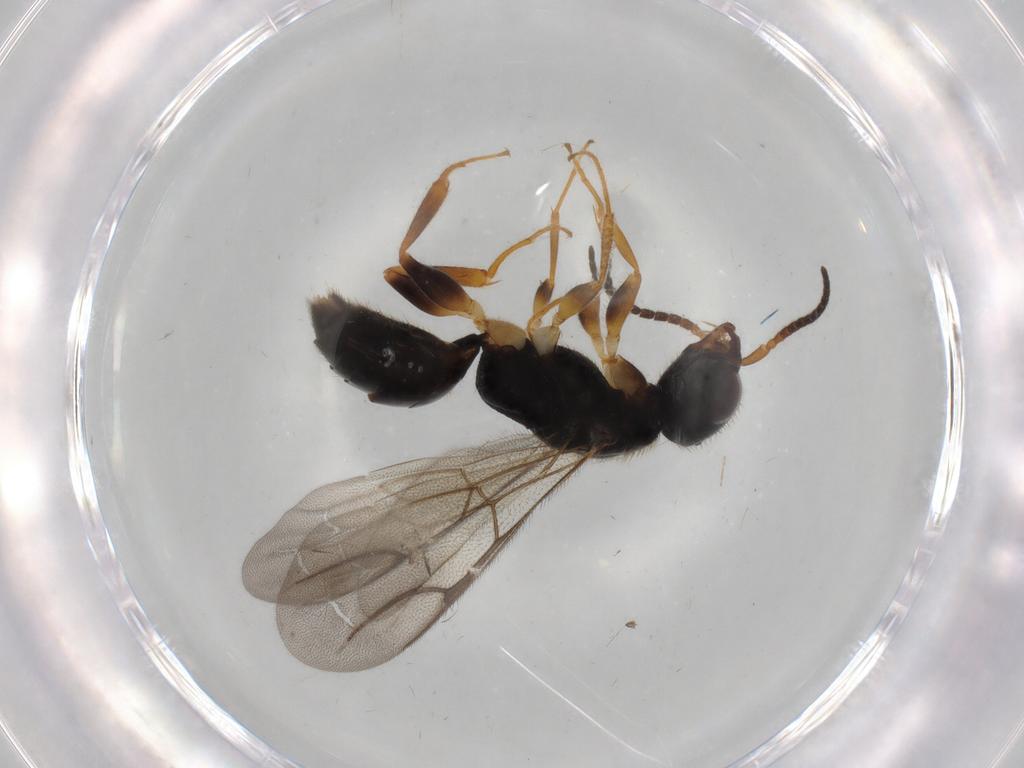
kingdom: Animalia
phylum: Arthropoda
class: Insecta
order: Hymenoptera
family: Bethylidae
